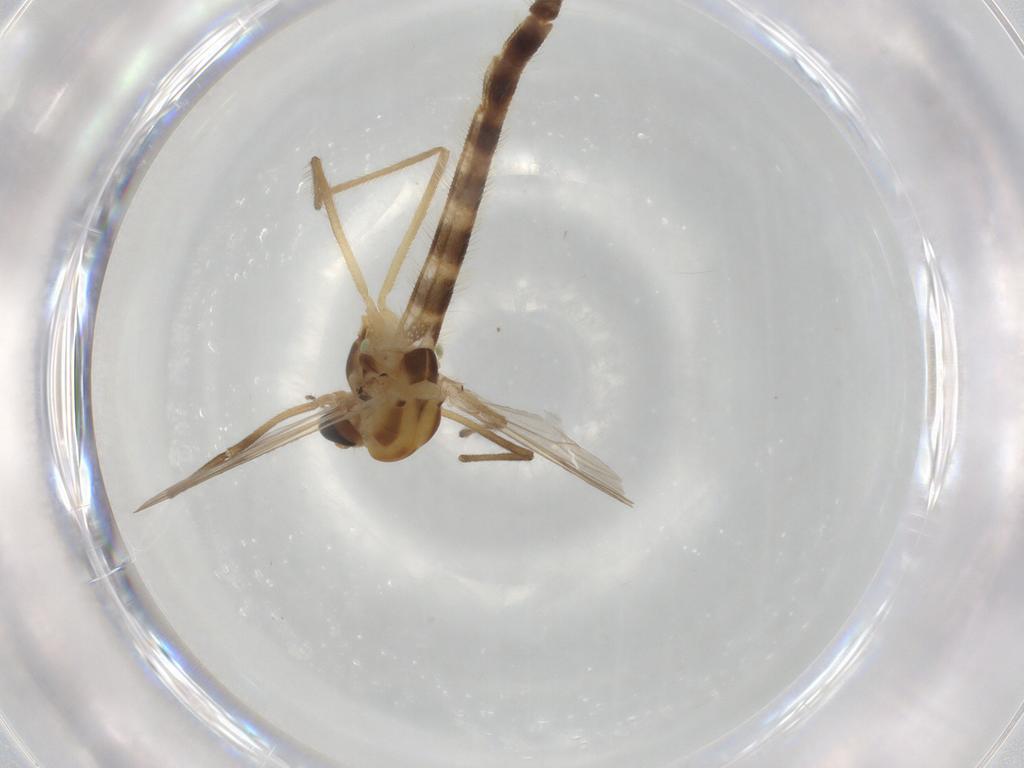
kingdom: Animalia
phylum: Arthropoda
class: Insecta
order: Diptera
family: Cecidomyiidae
